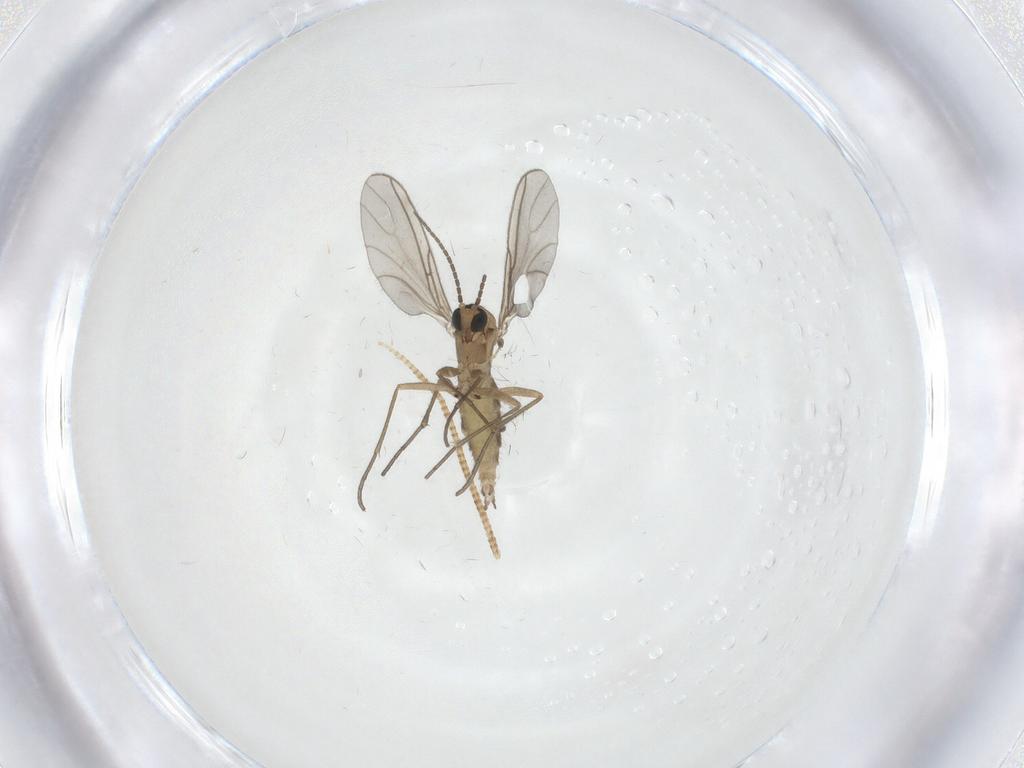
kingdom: Animalia
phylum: Arthropoda
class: Insecta
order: Diptera
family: Sciaridae
